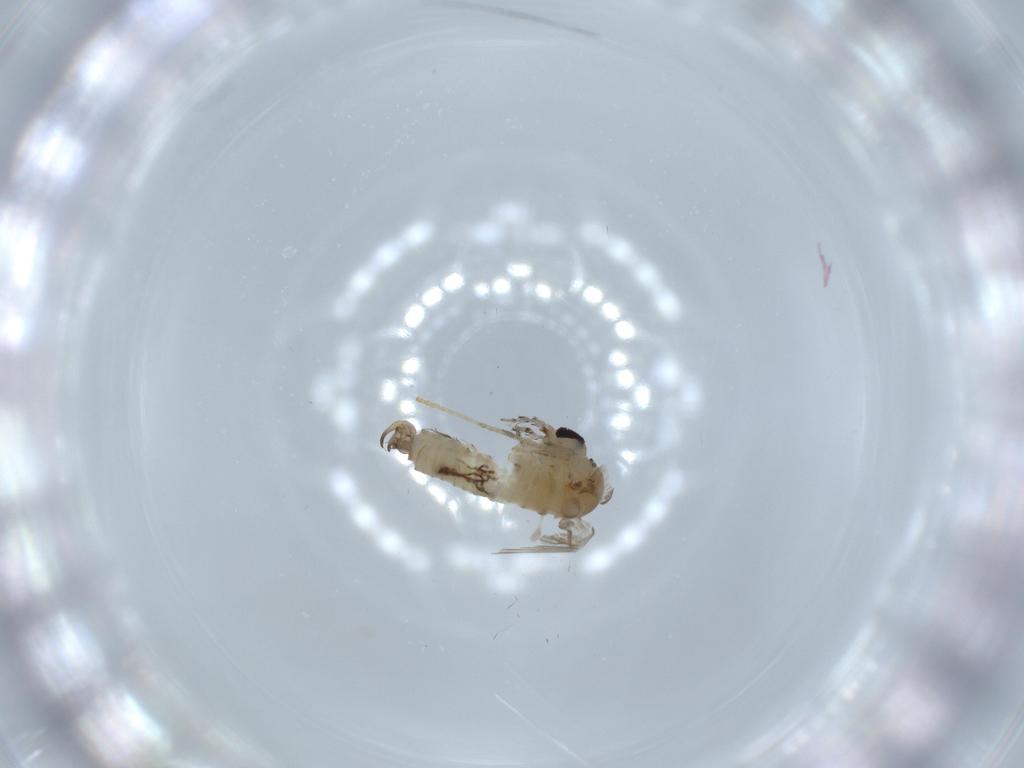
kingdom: Animalia
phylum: Arthropoda
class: Insecta
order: Diptera
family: Psychodidae
